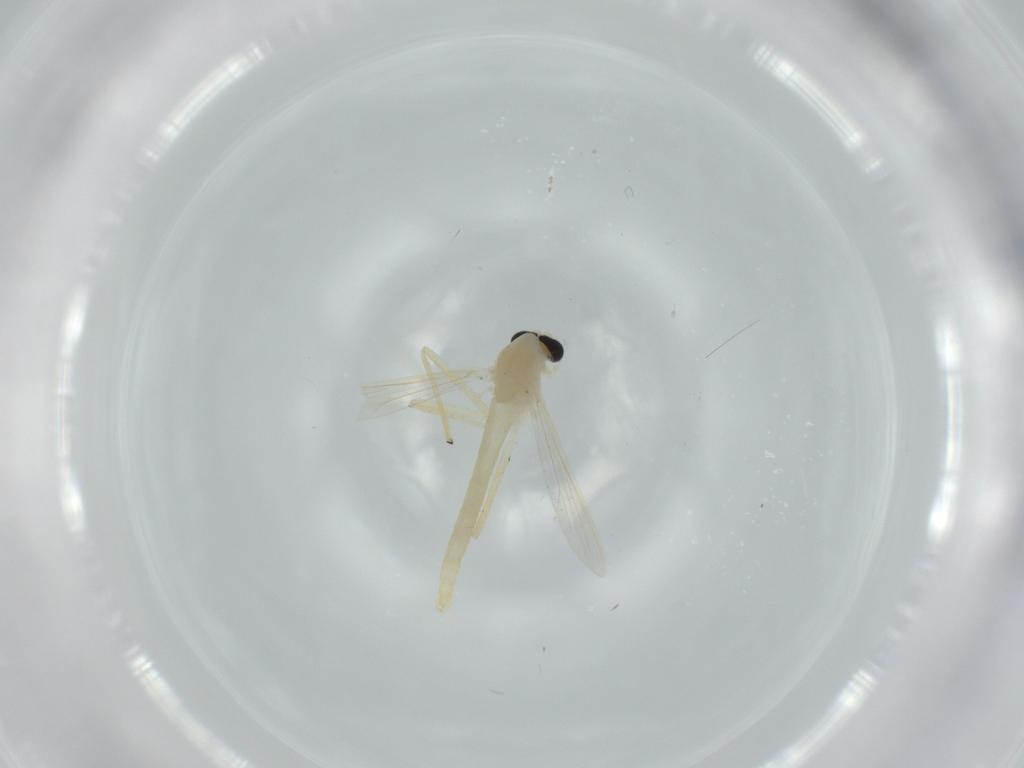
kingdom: Animalia
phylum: Arthropoda
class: Insecta
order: Diptera
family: Chironomidae
